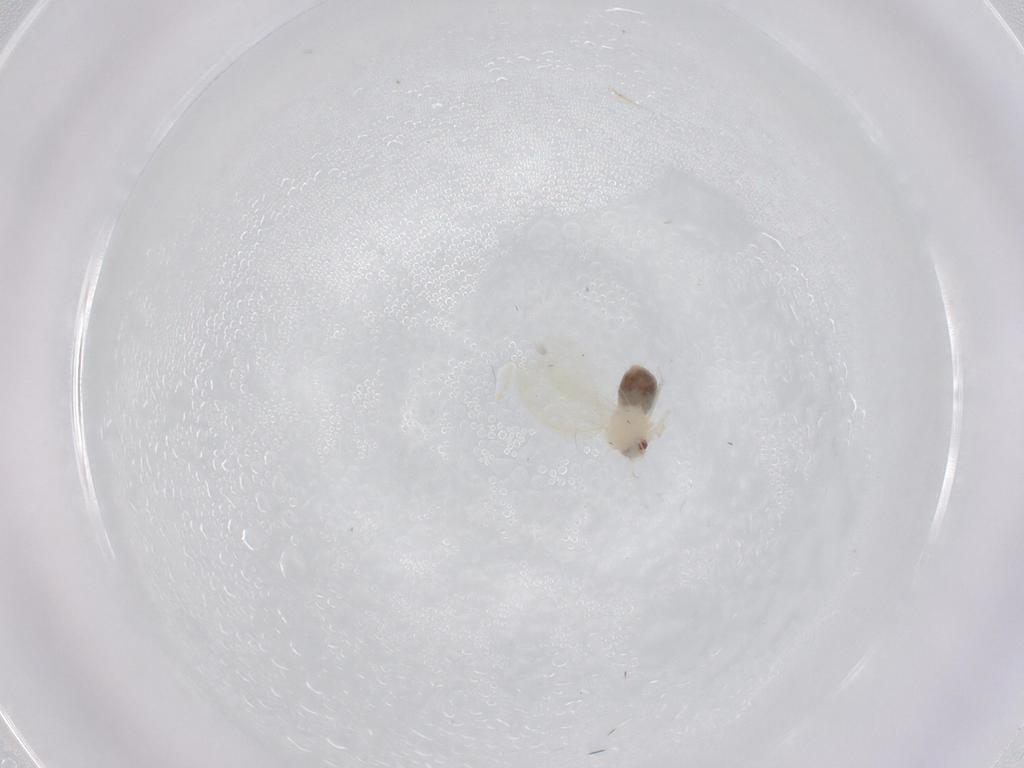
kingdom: Animalia
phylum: Arthropoda
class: Insecta
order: Hemiptera
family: Aleyrodidae
